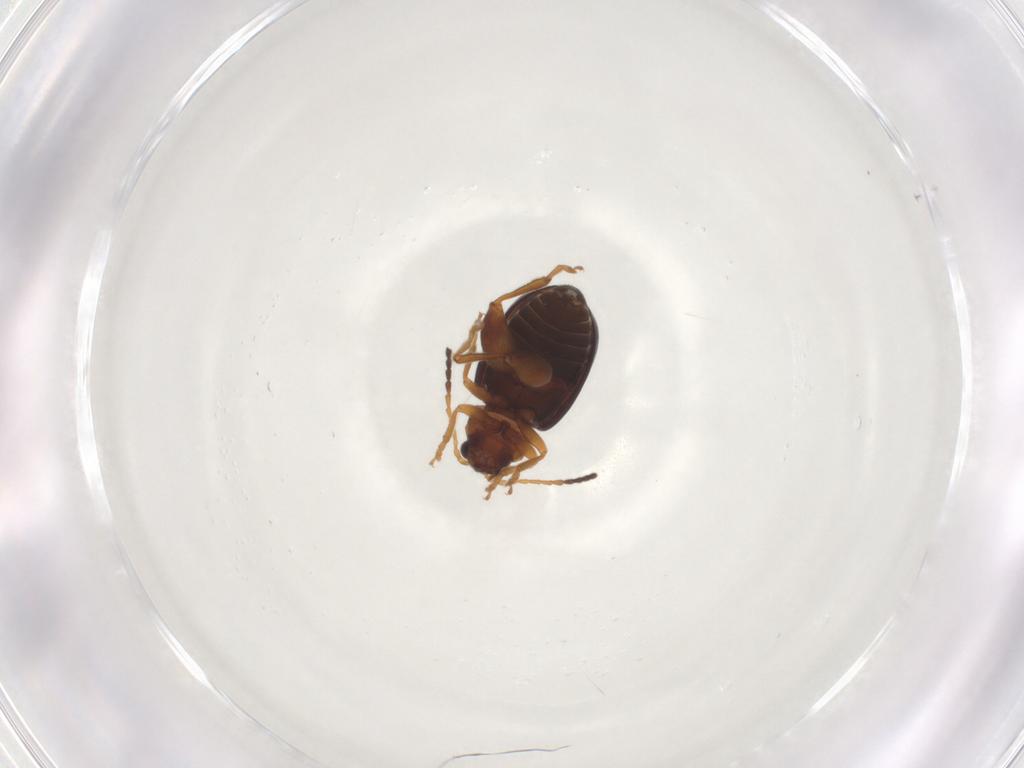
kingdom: Animalia
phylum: Arthropoda
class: Insecta
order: Coleoptera
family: Chrysomelidae
